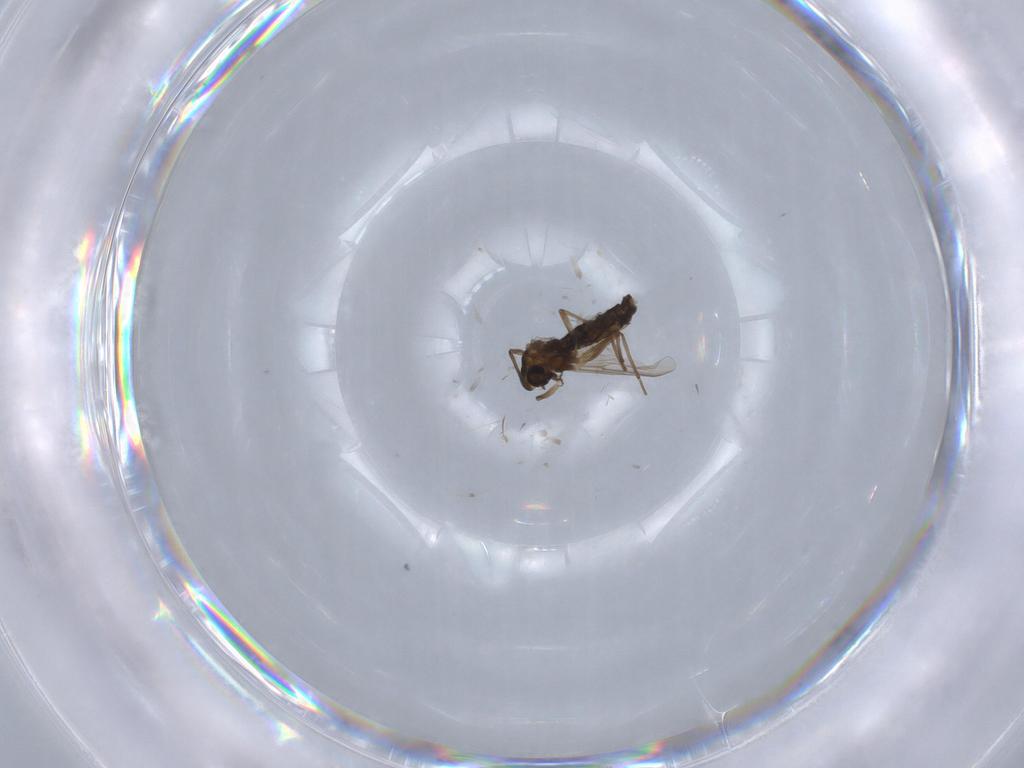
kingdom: Animalia
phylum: Arthropoda
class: Insecta
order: Diptera
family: Chironomidae
